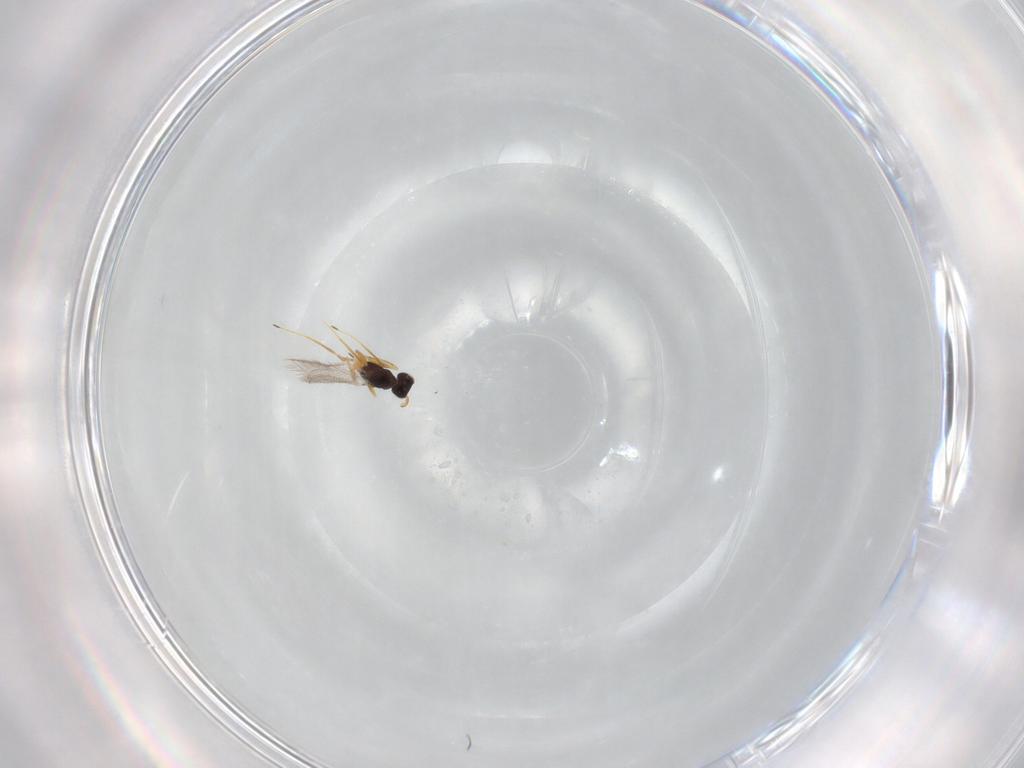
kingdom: Animalia
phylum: Arthropoda
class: Insecta
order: Hymenoptera
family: Mymaridae
